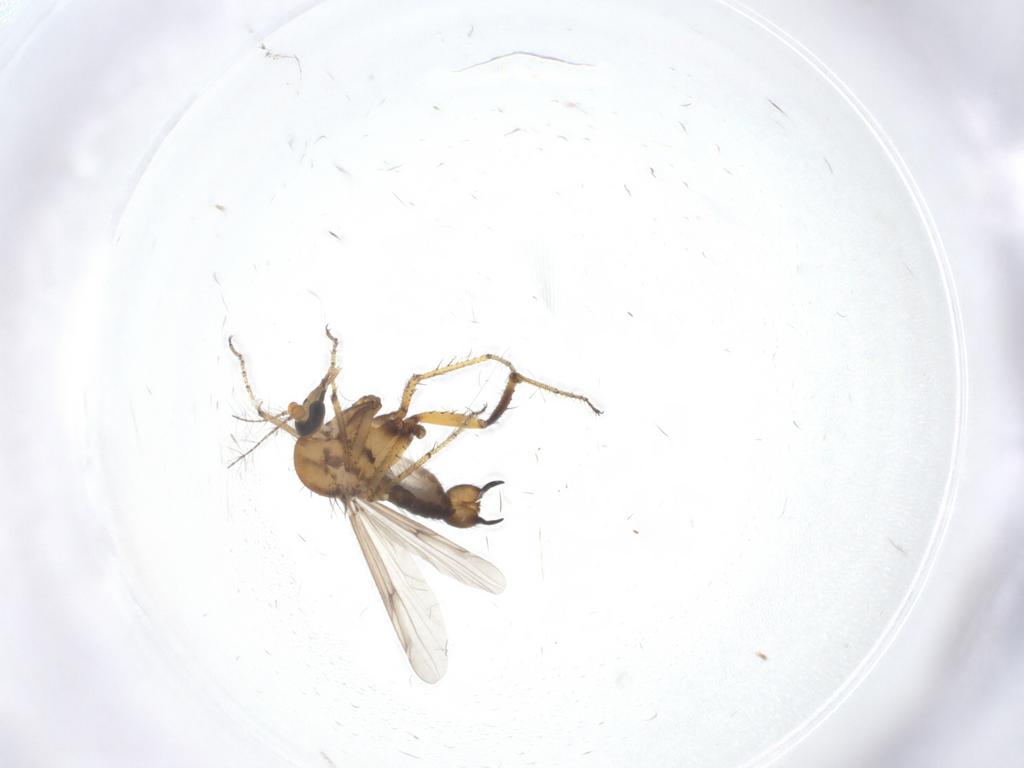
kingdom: Animalia
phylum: Arthropoda
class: Insecta
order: Diptera
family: Ceratopogonidae
